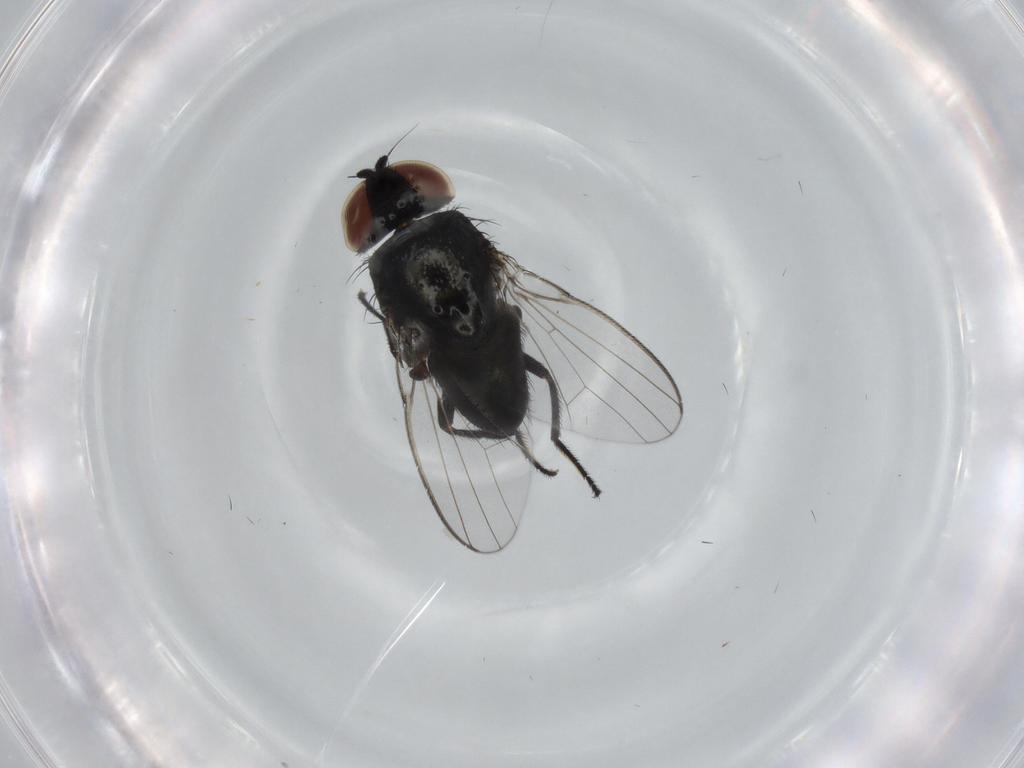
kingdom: Animalia
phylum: Arthropoda
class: Insecta
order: Diptera
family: Milichiidae
